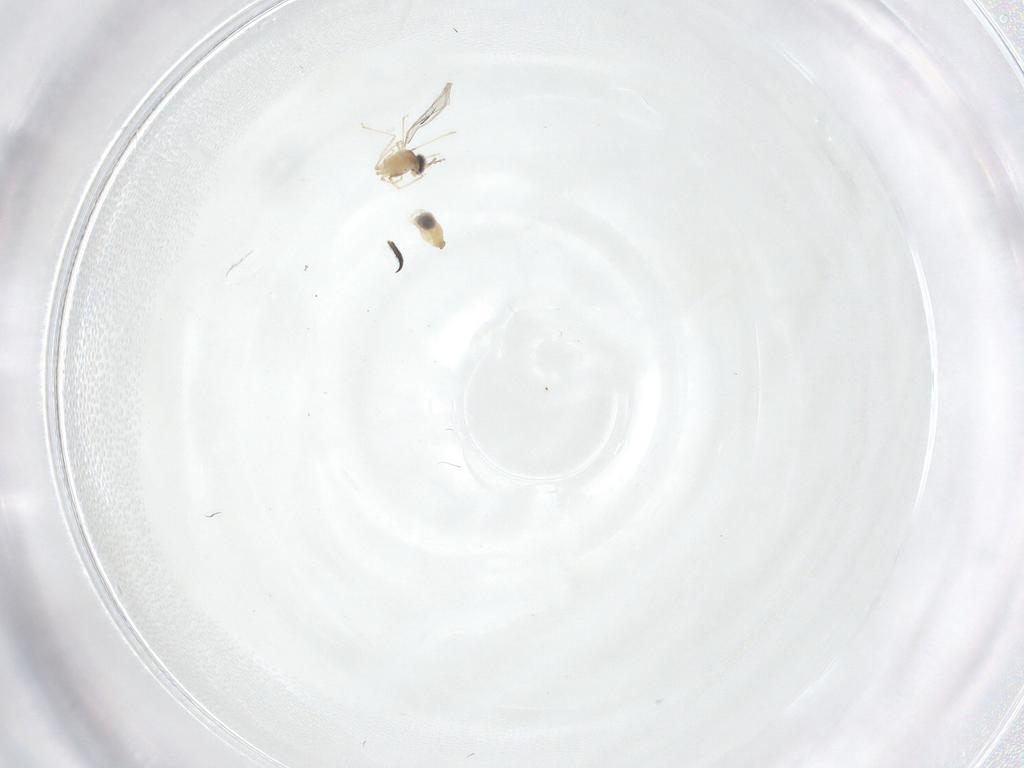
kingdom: Animalia
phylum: Arthropoda
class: Insecta
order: Diptera
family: Cecidomyiidae
